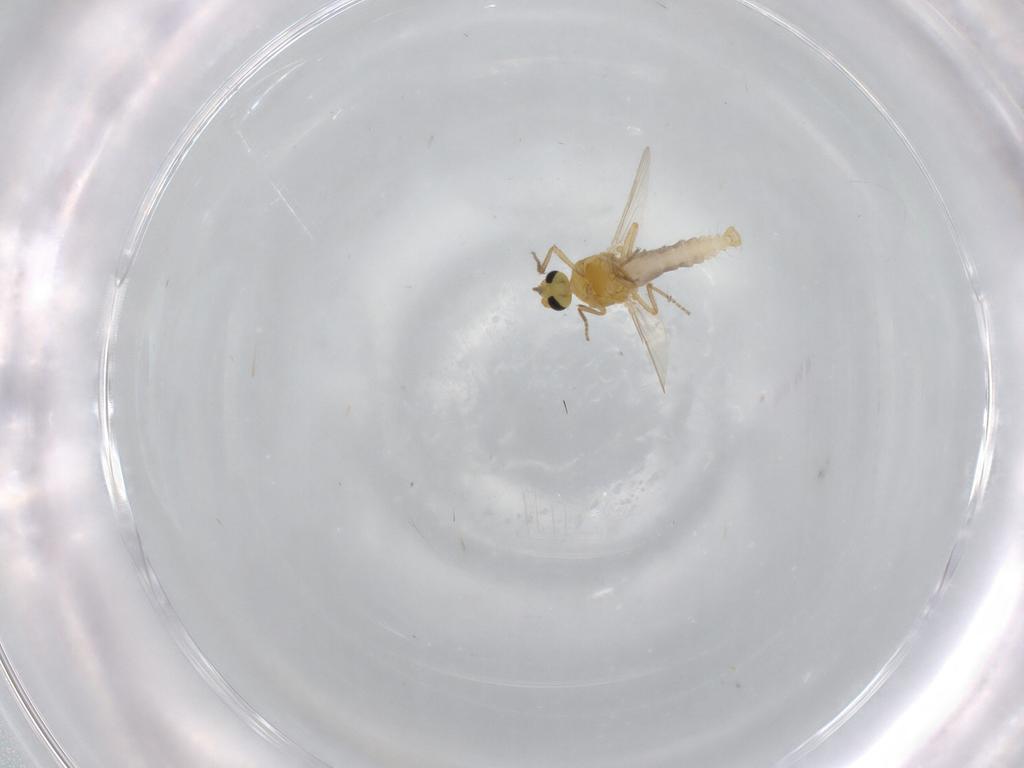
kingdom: Animalia
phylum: Arthropoda
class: Insecta
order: Diptera
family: Ceratopogonidae
